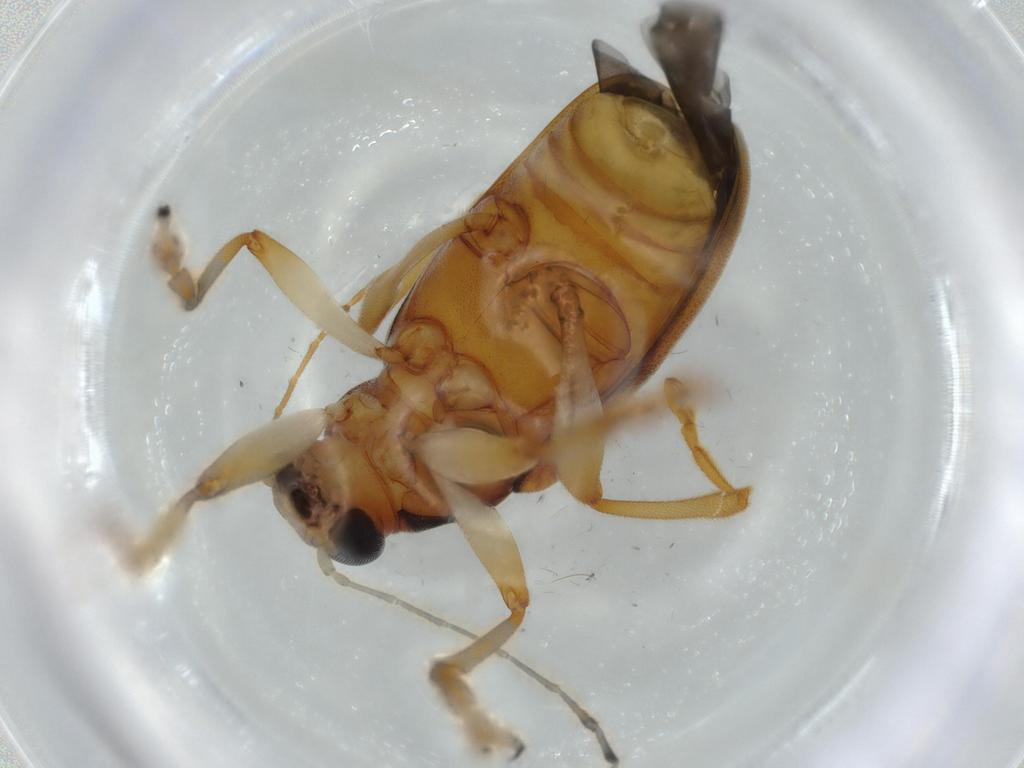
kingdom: Animalia
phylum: Arthropoda
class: Insecta
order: Coleoptera
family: Chrysomelidae
